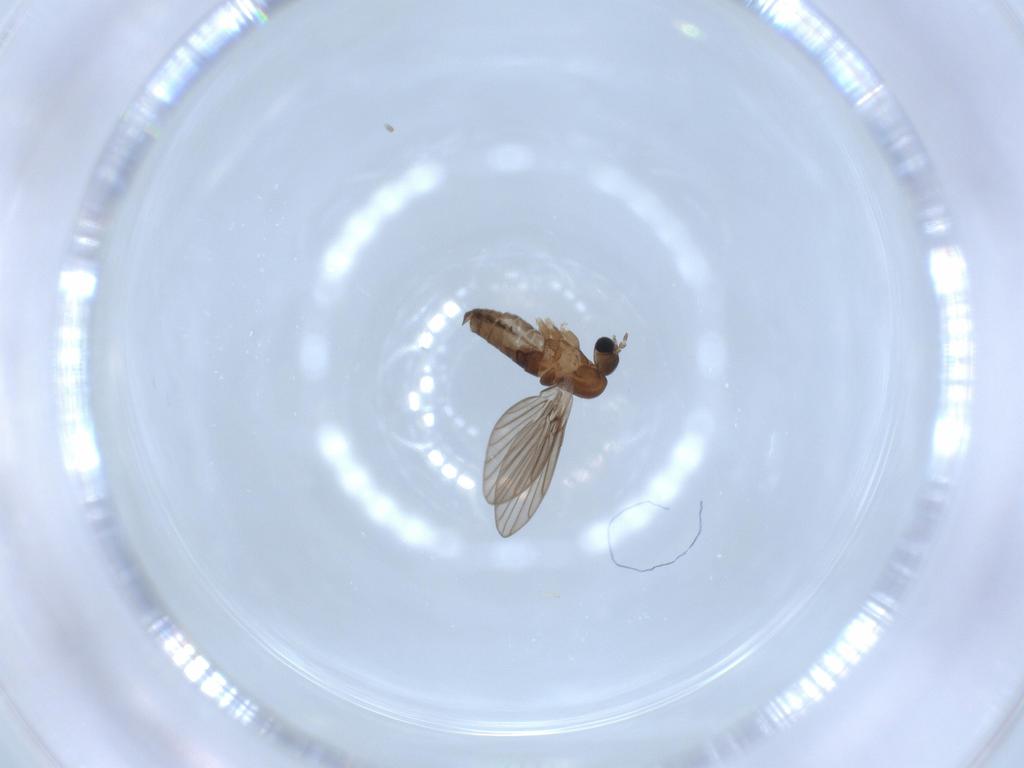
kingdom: Animalia
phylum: Arthropoda
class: Insecta
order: Diptera
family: Psychodidae
